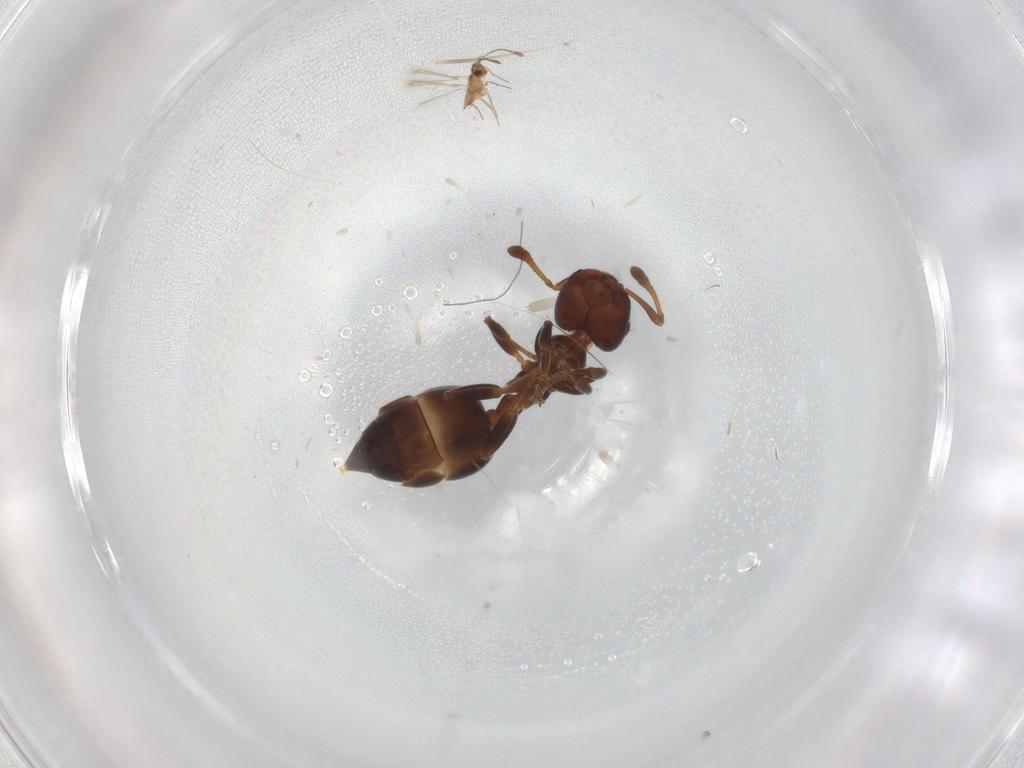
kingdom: Animalia
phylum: Arthropoda
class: Insecta
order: Hymenoptera
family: Formicidae
